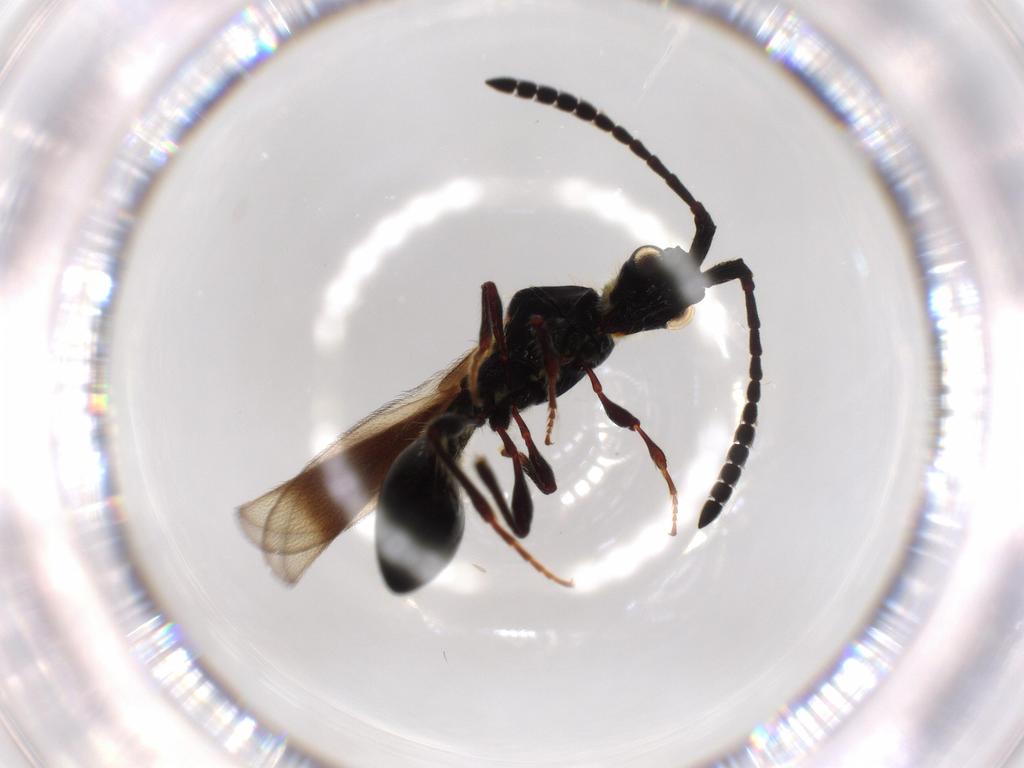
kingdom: Animalia
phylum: Arthropoda
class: Insecta
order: Hymenoptera
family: Diapriidae
